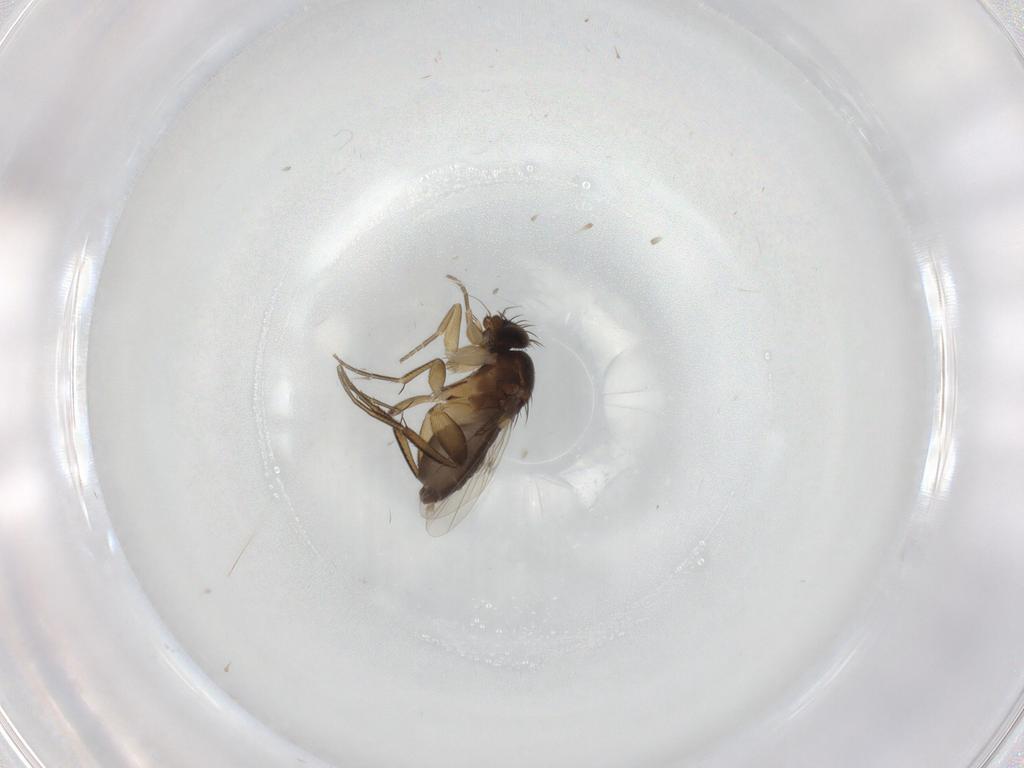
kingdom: Animalia
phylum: Arthropoda
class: Insecta
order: Diptera
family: Phoridae
